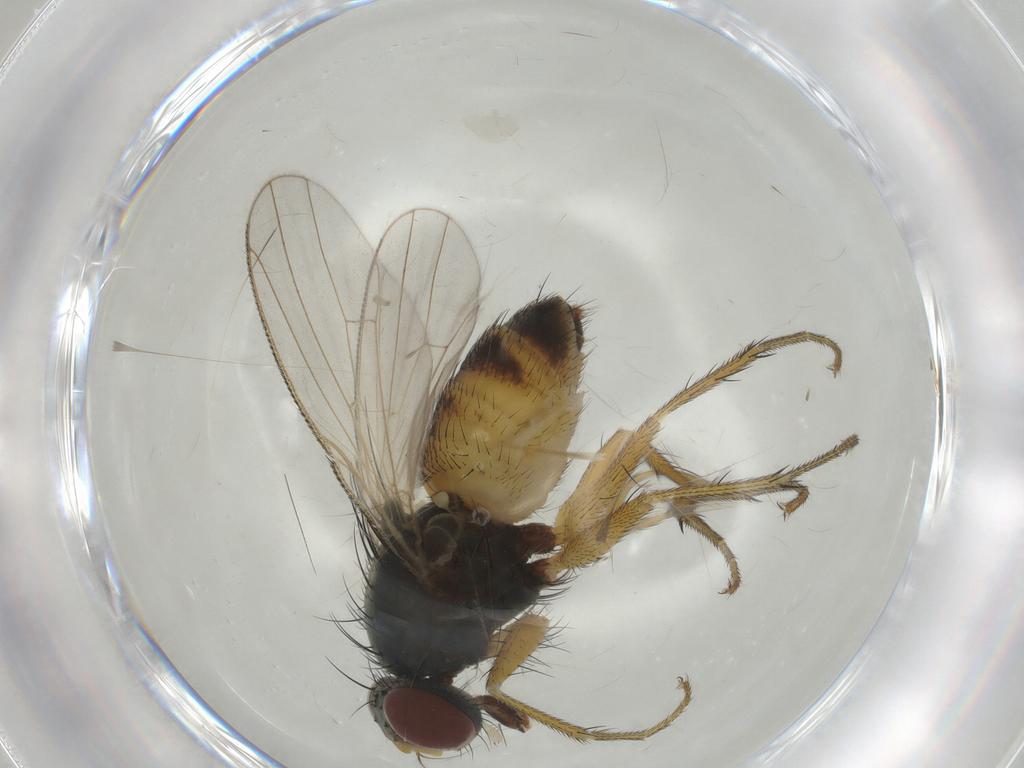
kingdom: Animalia
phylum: Arthropoda
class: Insecta
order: Diptera
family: Muscidae
